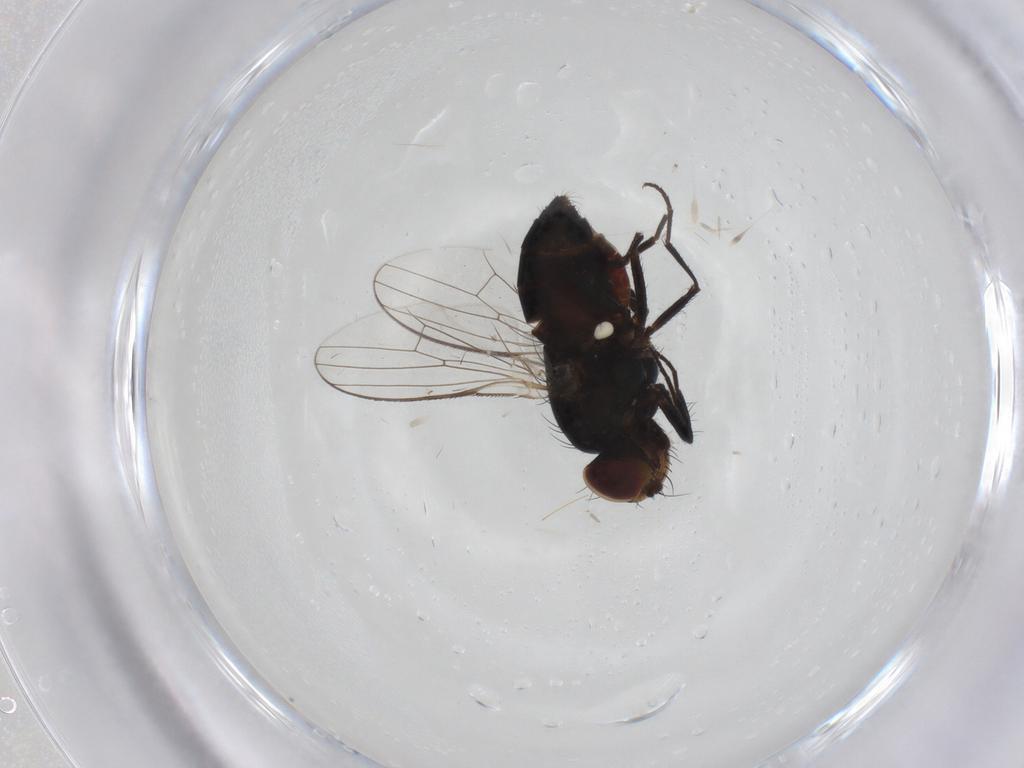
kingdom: Animalia
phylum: Arthropoda
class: Insecta
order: Diptera
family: Carnidae
